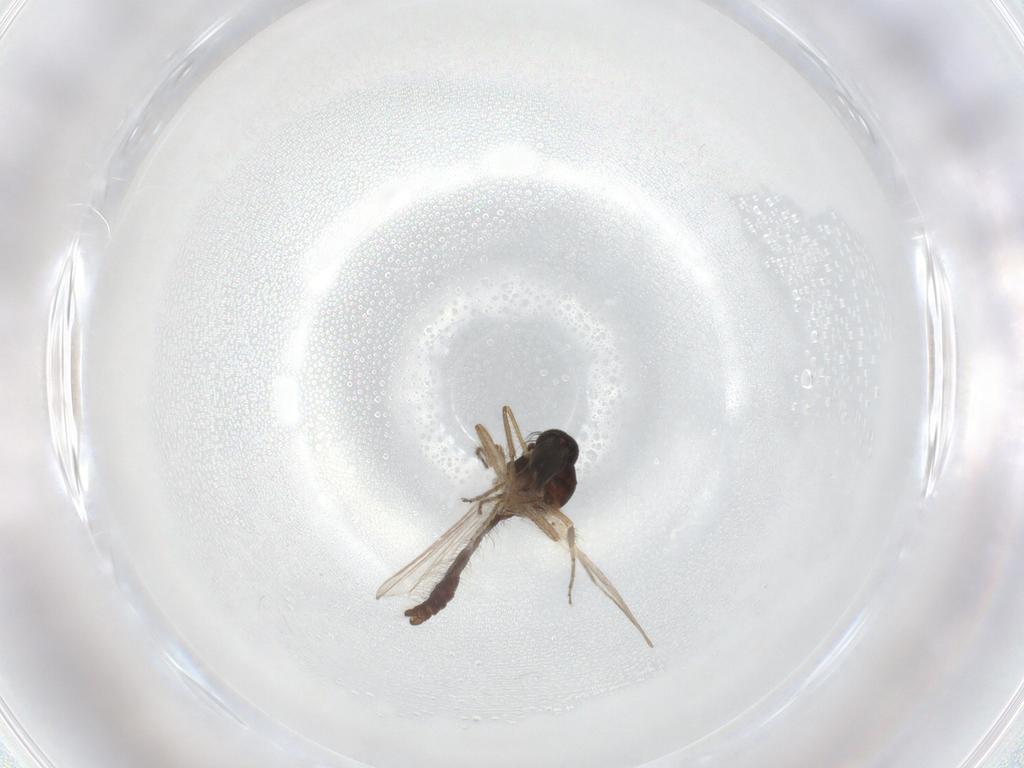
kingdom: Animalia
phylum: Arthropoda
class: Insecta
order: Diptera
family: Ceratopogonidae
